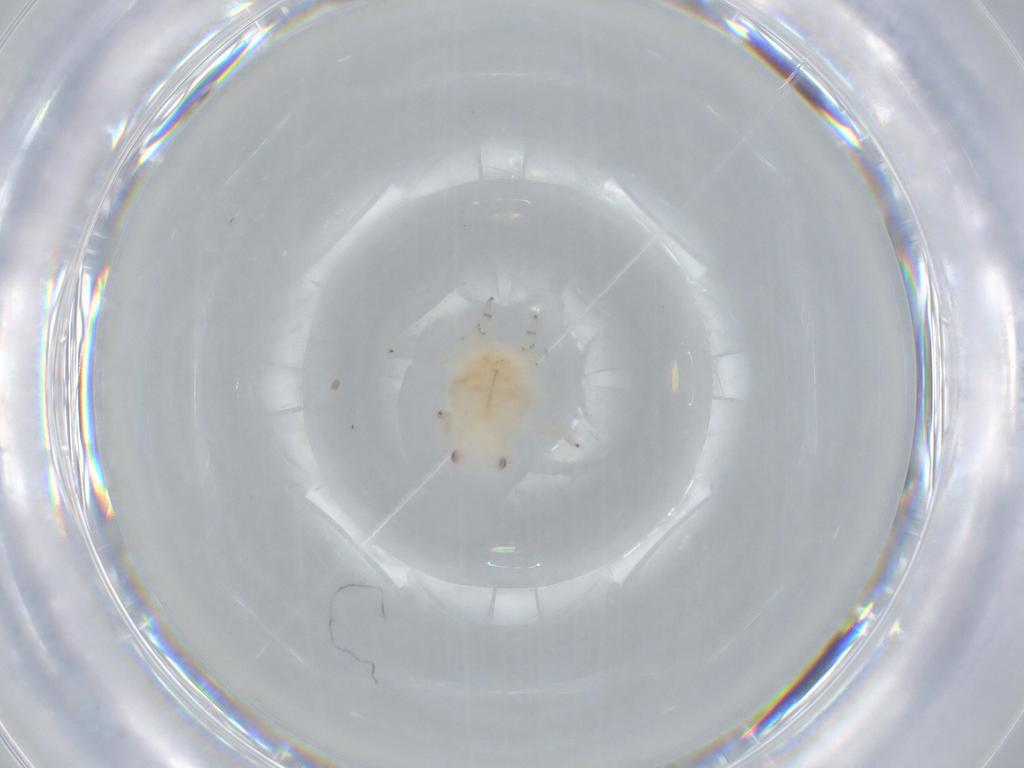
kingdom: Animalia
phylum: Arthropoda
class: Insecta
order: Hemiptera
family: Flatidae
